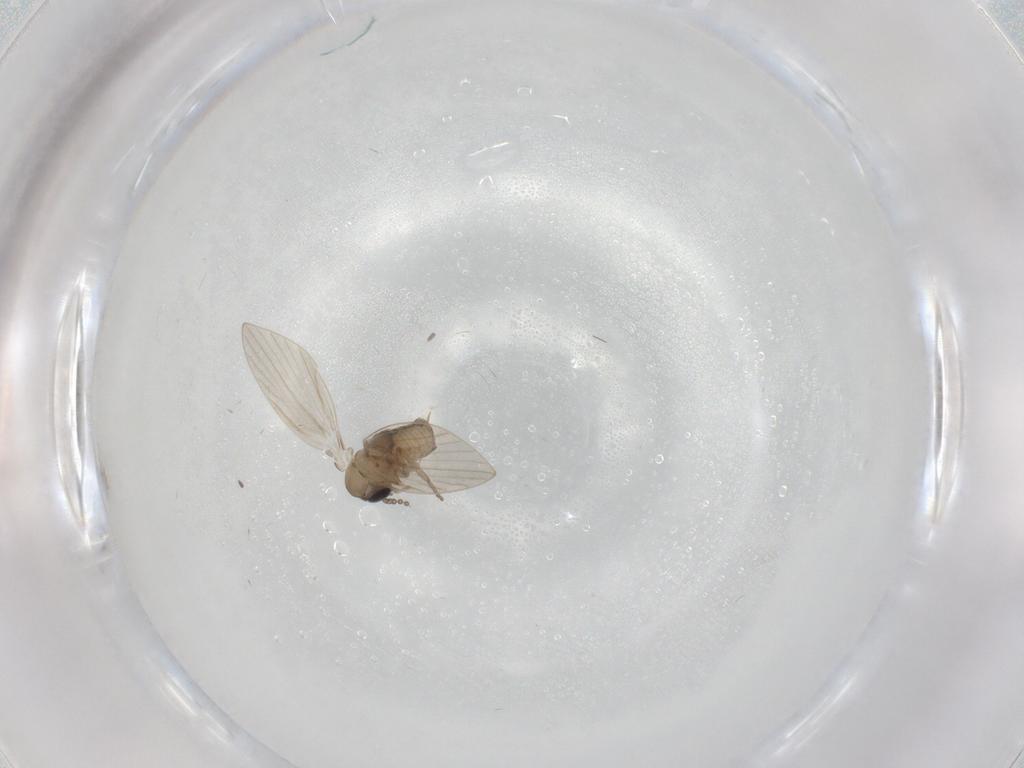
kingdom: Animalia
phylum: Arthropoda
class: Insecta
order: Diptera
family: Psychodidae
